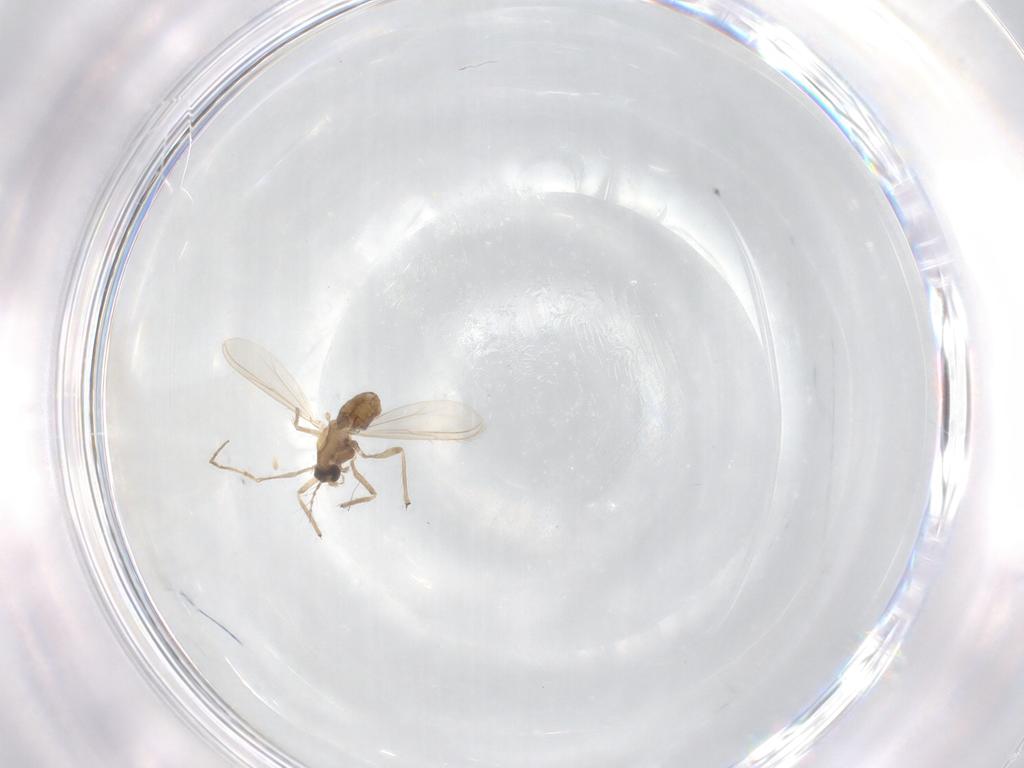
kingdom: Animalia
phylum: Arthropoda
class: Insecta
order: Diptera
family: Chironomidae
